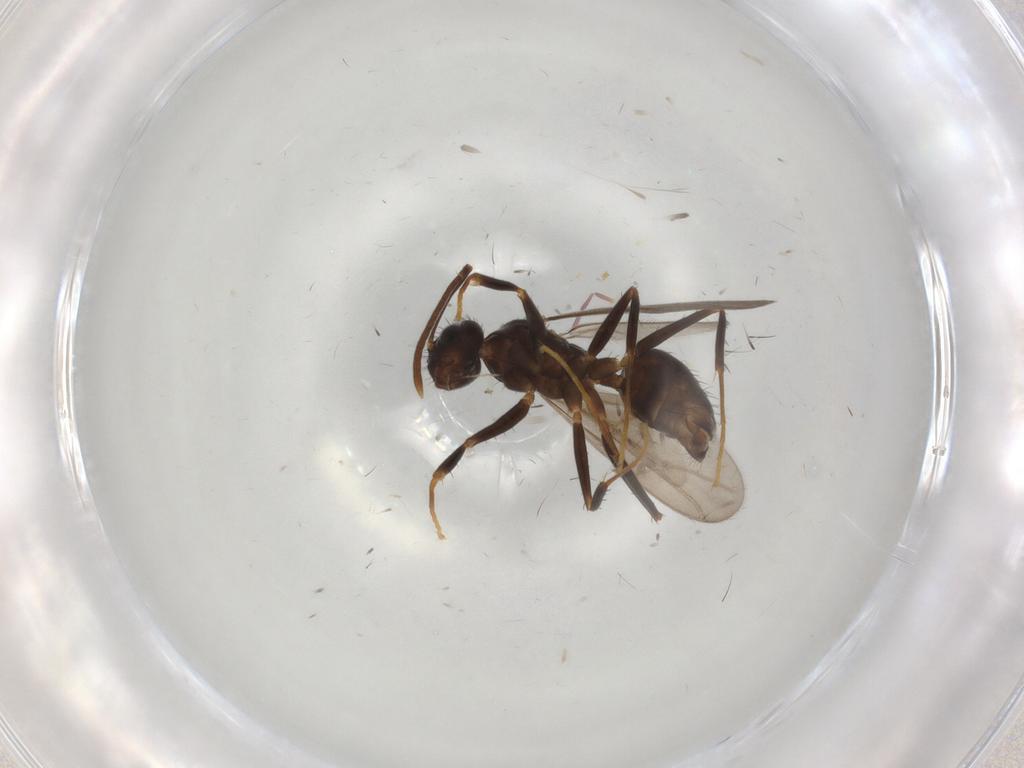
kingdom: Animalia
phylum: Arthropoda
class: Insecta
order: Hymenoptera
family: Formicidae
